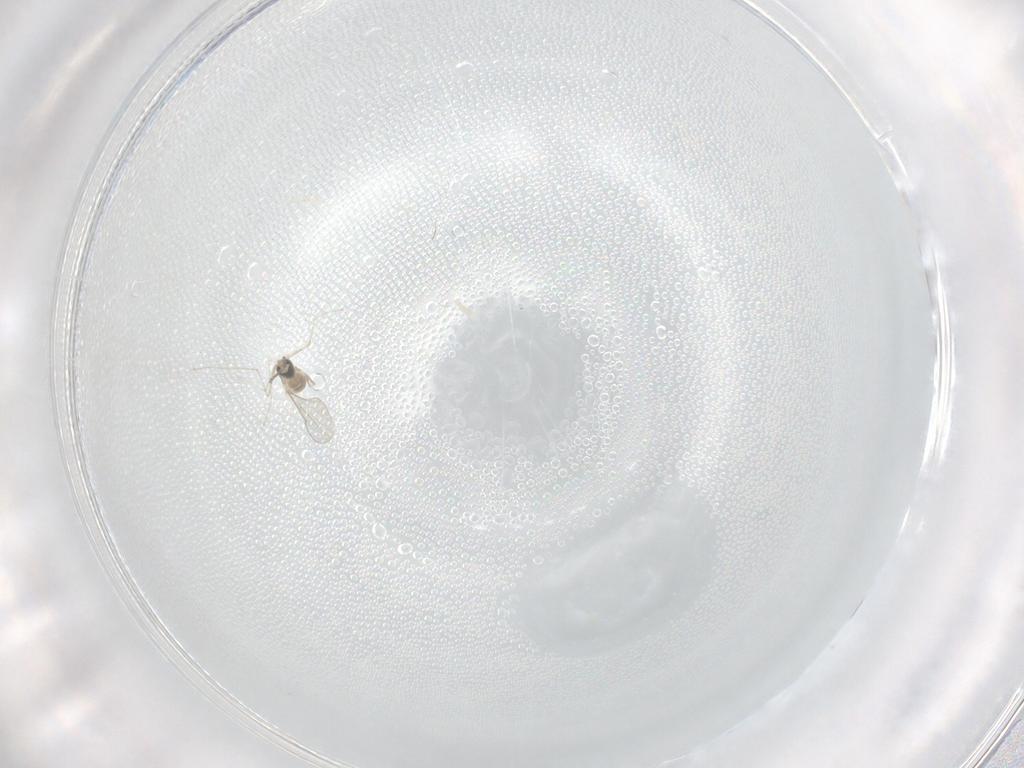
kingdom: Animalia
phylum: Arthropoda
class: Insecta
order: Diptera
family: Cecidomyiidae
